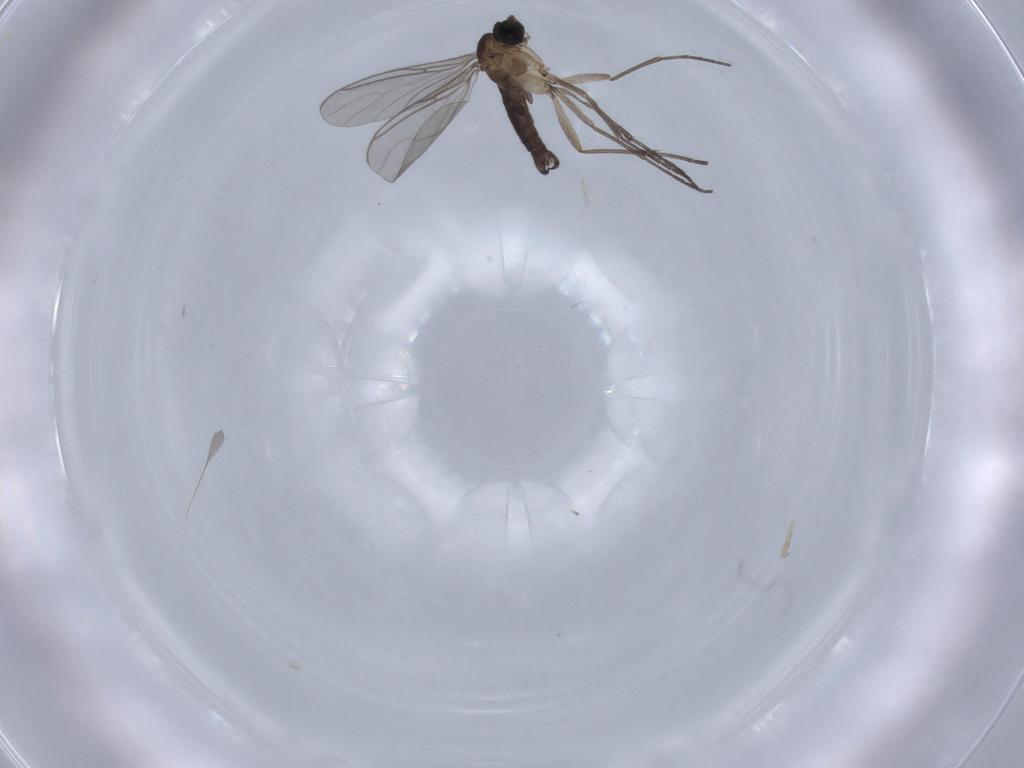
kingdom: Animalia
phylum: Arthropoda
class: Insecta
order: Diptera
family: Sciaridae
